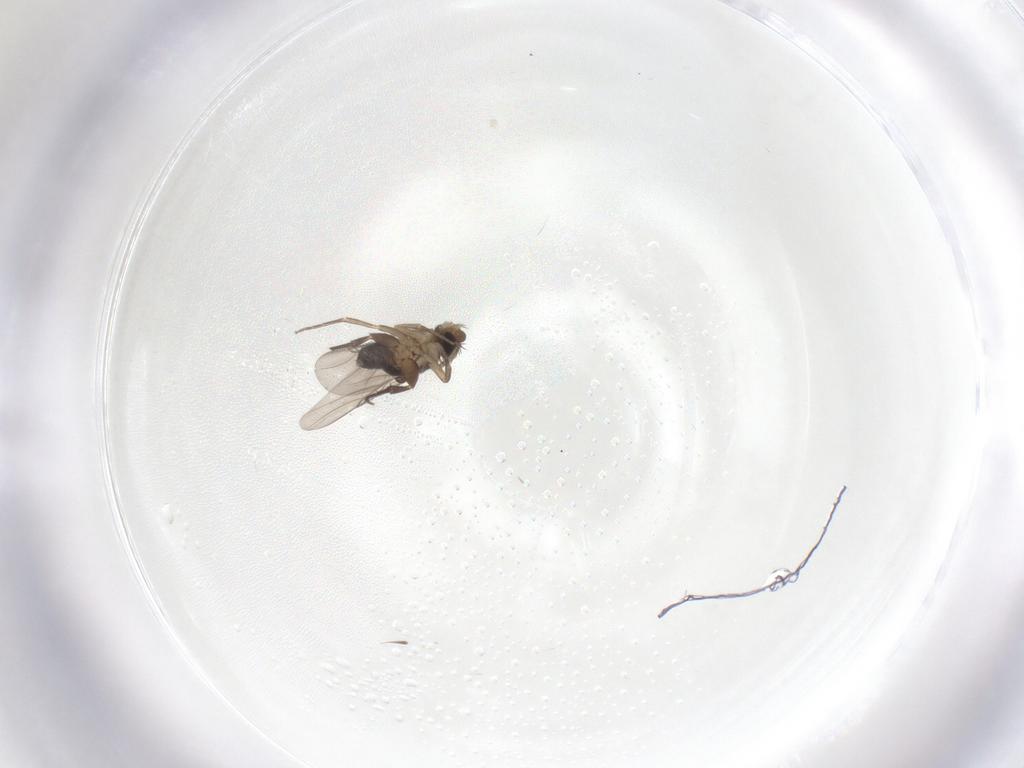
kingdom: Animalia
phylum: Arthropoda
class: Insecta
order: Diptera
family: Phoridae
